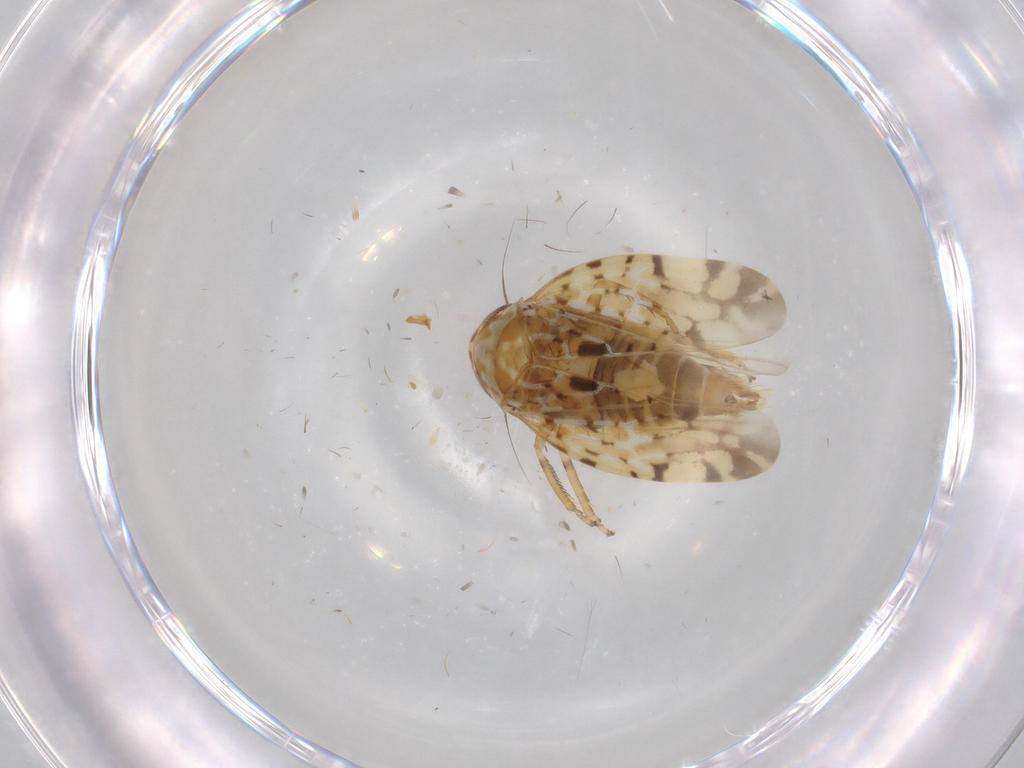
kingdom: Animalia
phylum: Arthropoda
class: Insecta
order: Hemiptera
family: Cicadellidae
